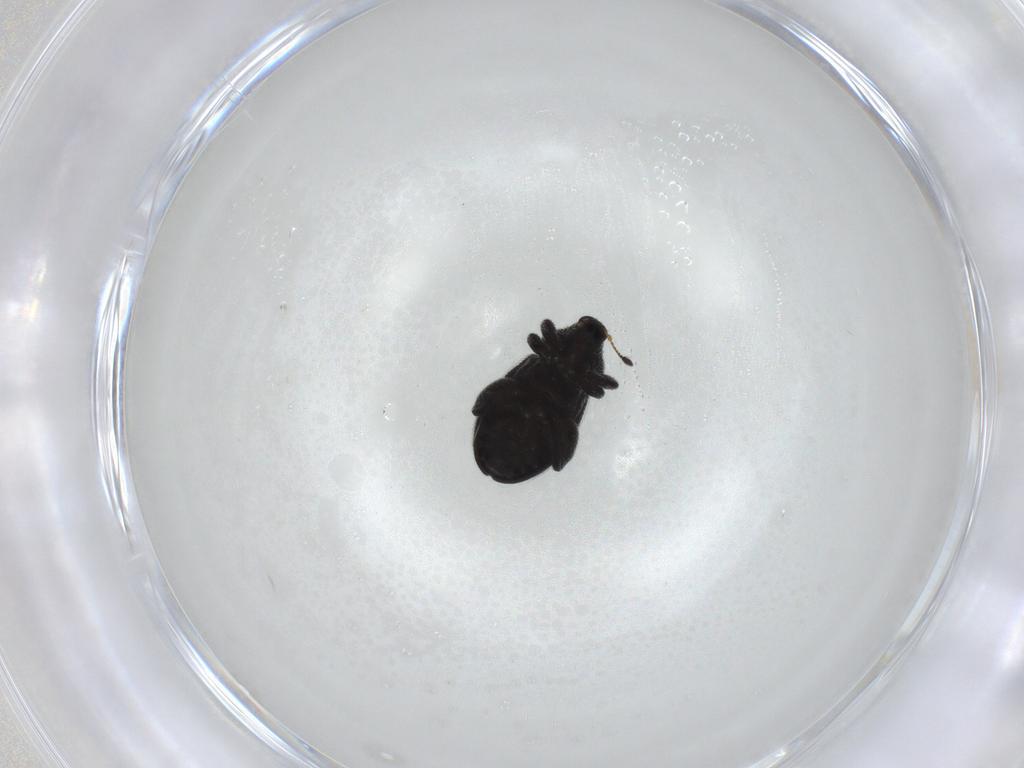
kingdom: Animalia
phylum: Arthropoda
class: Insecta
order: Coleoptera
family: Curculionidae
